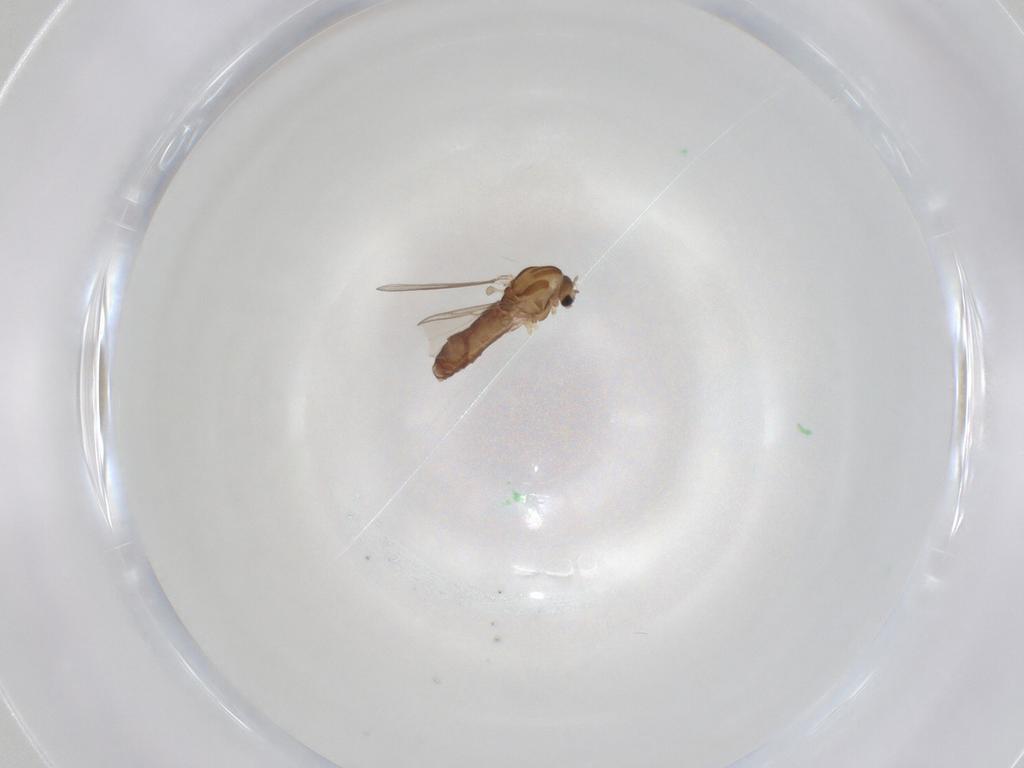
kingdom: Animalia
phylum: Arthropoda
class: Insecta
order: Diptera
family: Chironomidae
